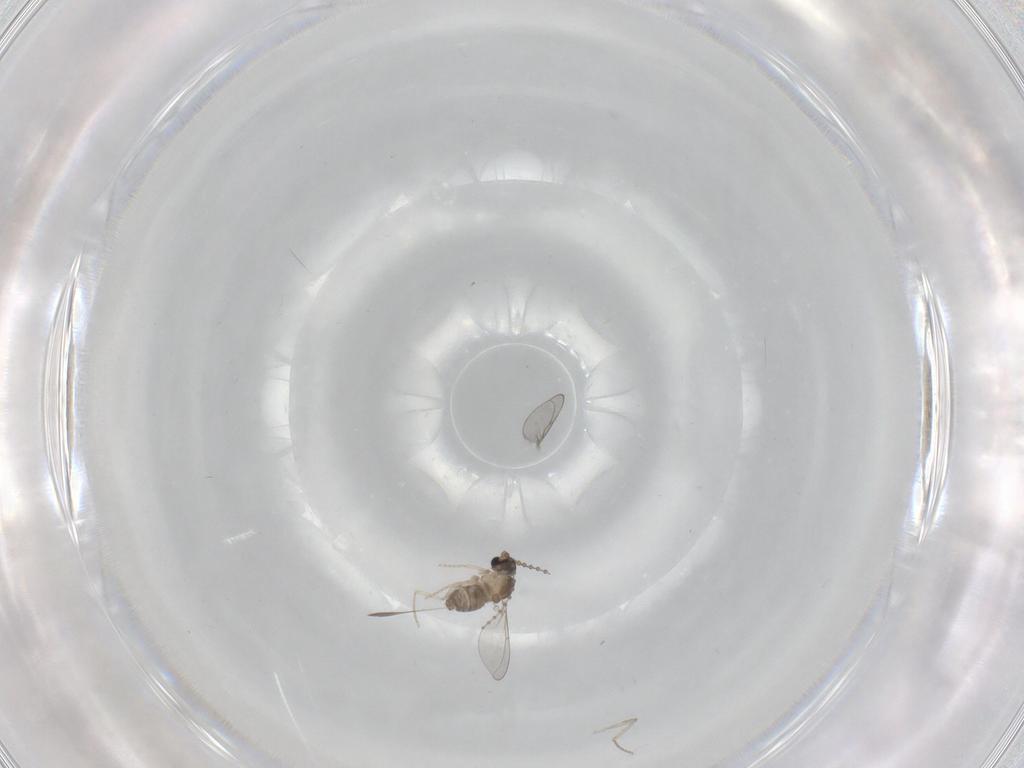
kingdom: Animalia
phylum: Arthropoda
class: Insecta
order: Diptera
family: Cecidomyiidae
